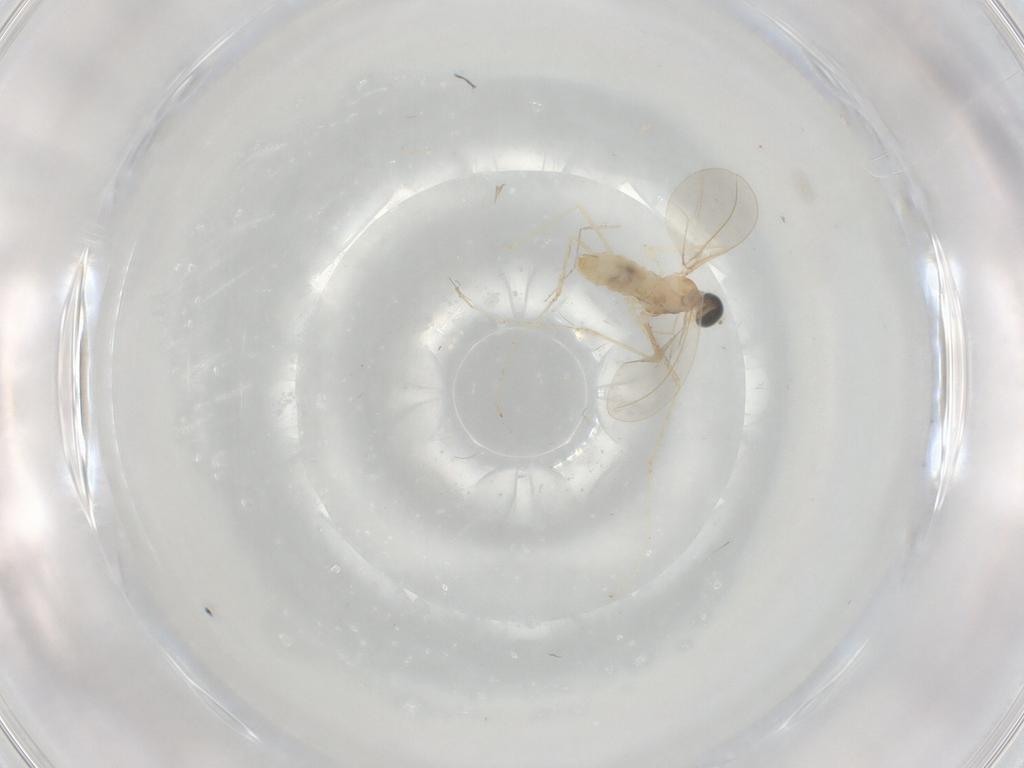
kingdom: Animalia
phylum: Arthropoda
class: Insecta
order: Diptera
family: Cecidomyiidae
